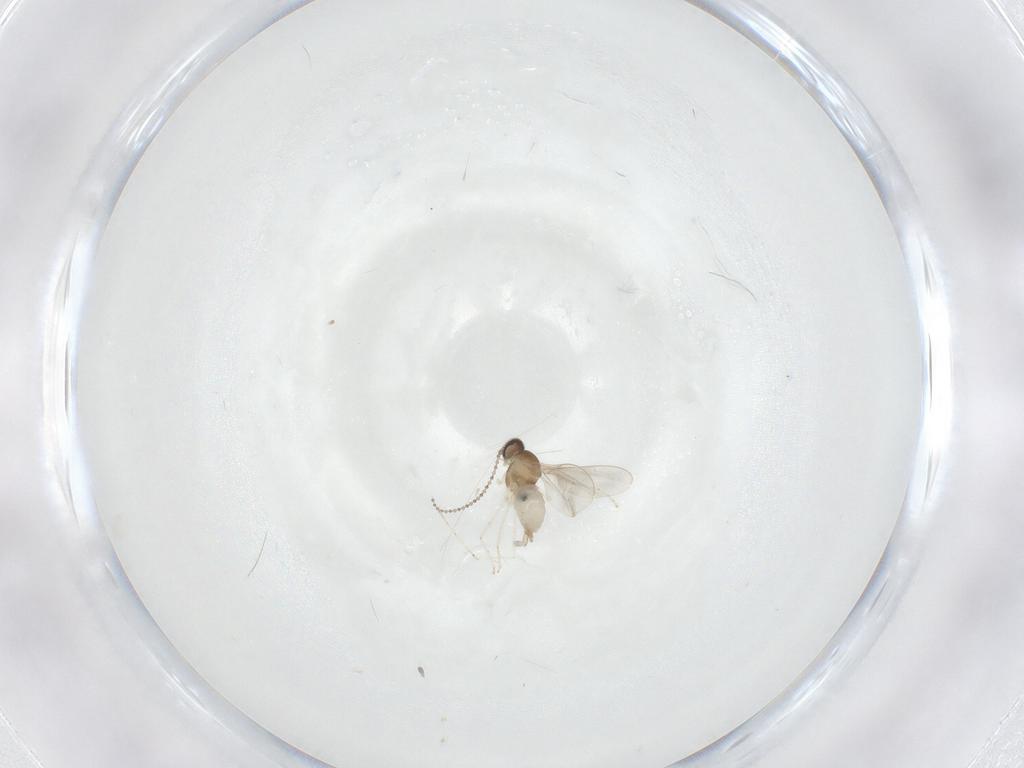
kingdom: Animalia
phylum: Arthropoda
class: Insecta
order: Diptera
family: Cecidomyiidae
